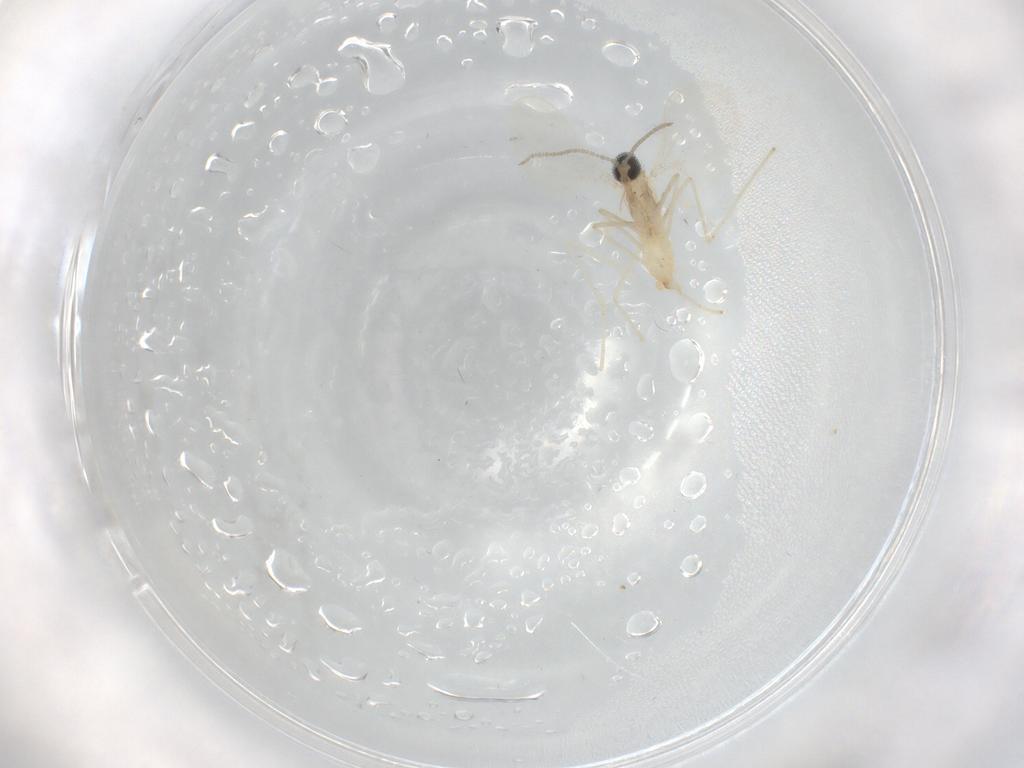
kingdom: Animalia
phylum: Arthropoda
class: Insecta
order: Diptera
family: Cecidomyiidae
